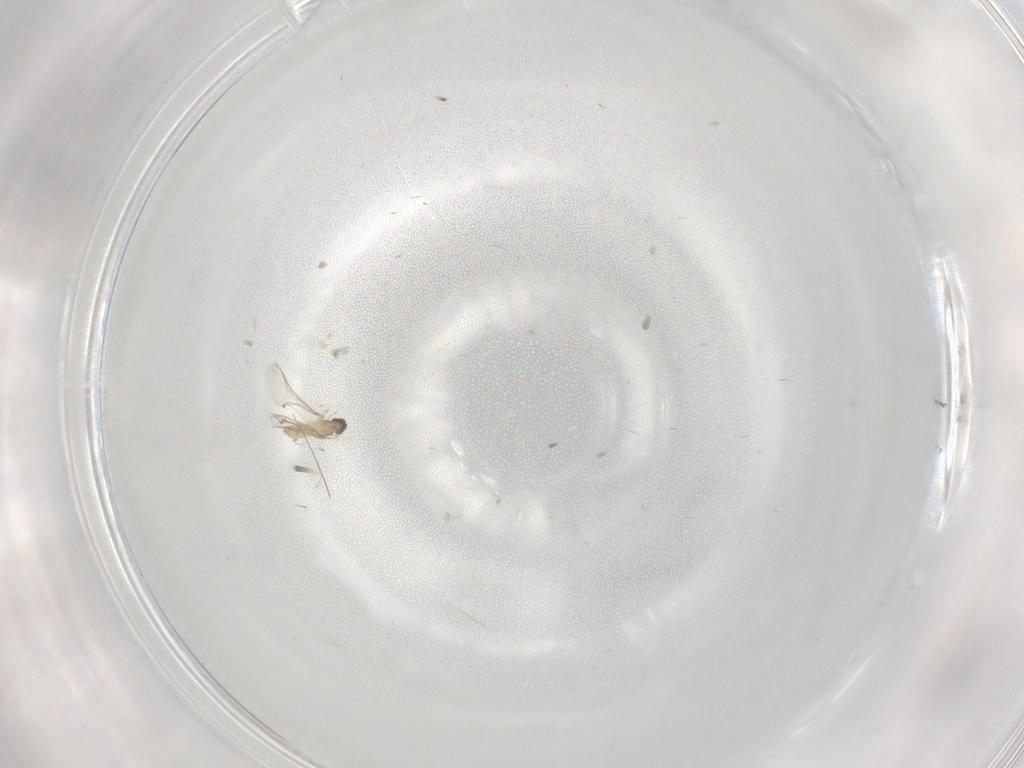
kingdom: Animalia
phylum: Arthropoda
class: Insecta
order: Diptera
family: Cecidomyiidae
